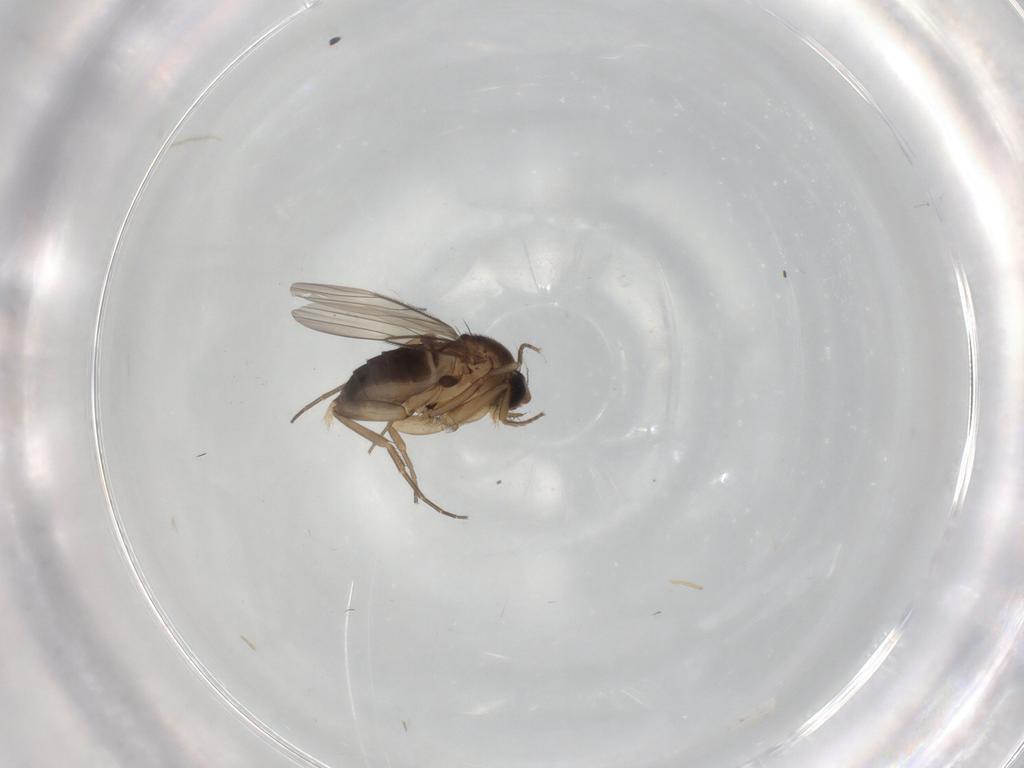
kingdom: Animalia
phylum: Arthropoda
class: Insecta
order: Diptera
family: Phoridae
